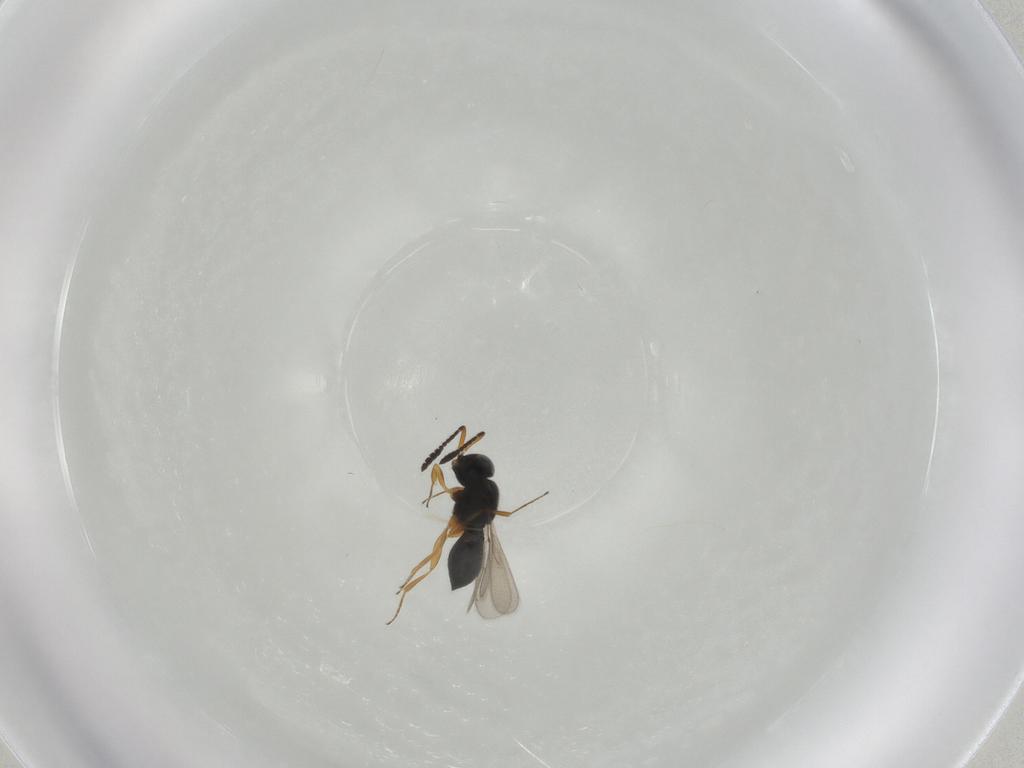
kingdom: Animalia
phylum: Arthropoda
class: Insecta
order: Hymenoptera
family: Scelionidae
